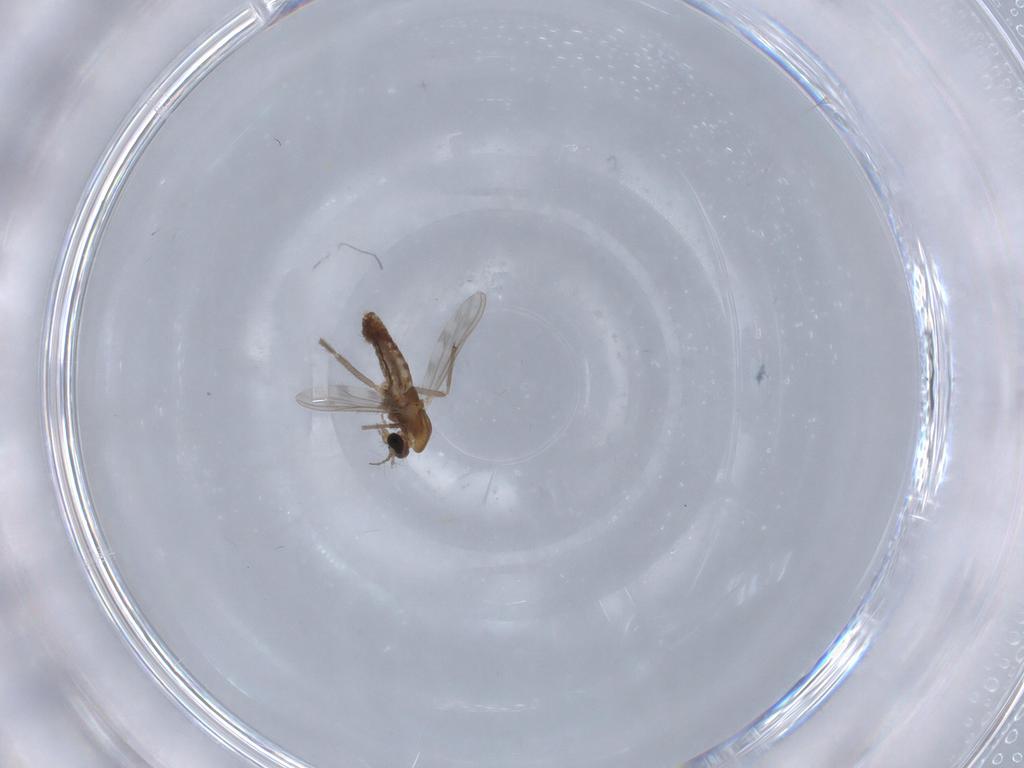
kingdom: Animalia
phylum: Arthropoda
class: Insecta
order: Diptera
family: Chironomidae
